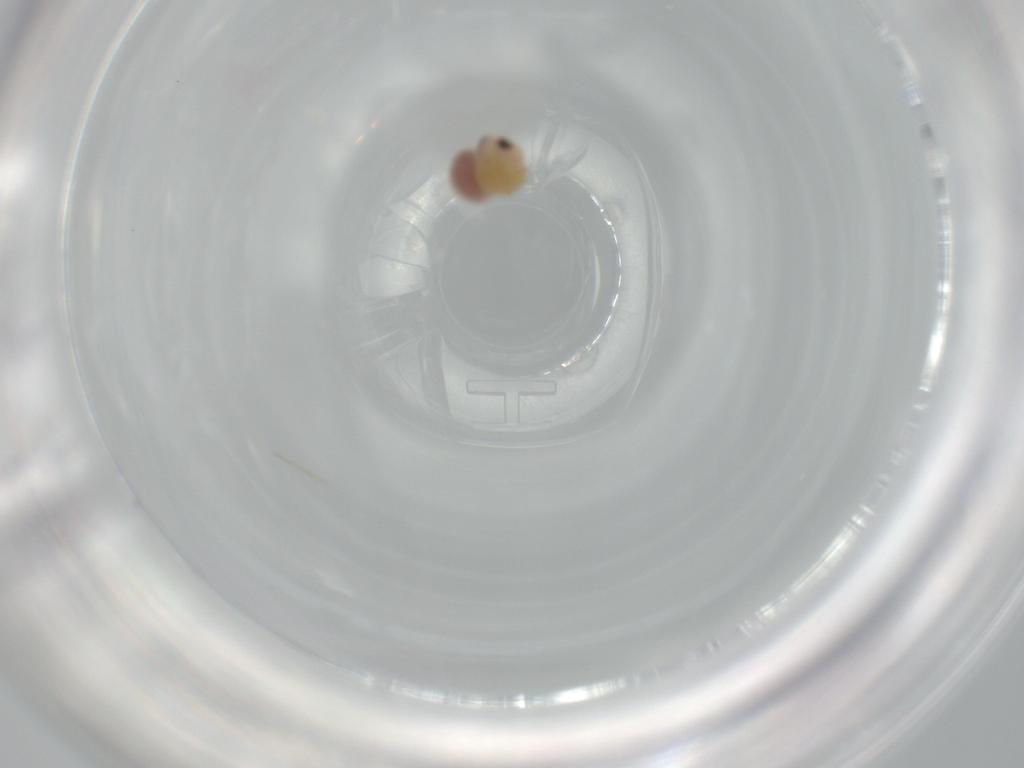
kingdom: Animalia
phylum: Arthropoda
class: Arachnida
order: Araneae
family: Pholcidae
